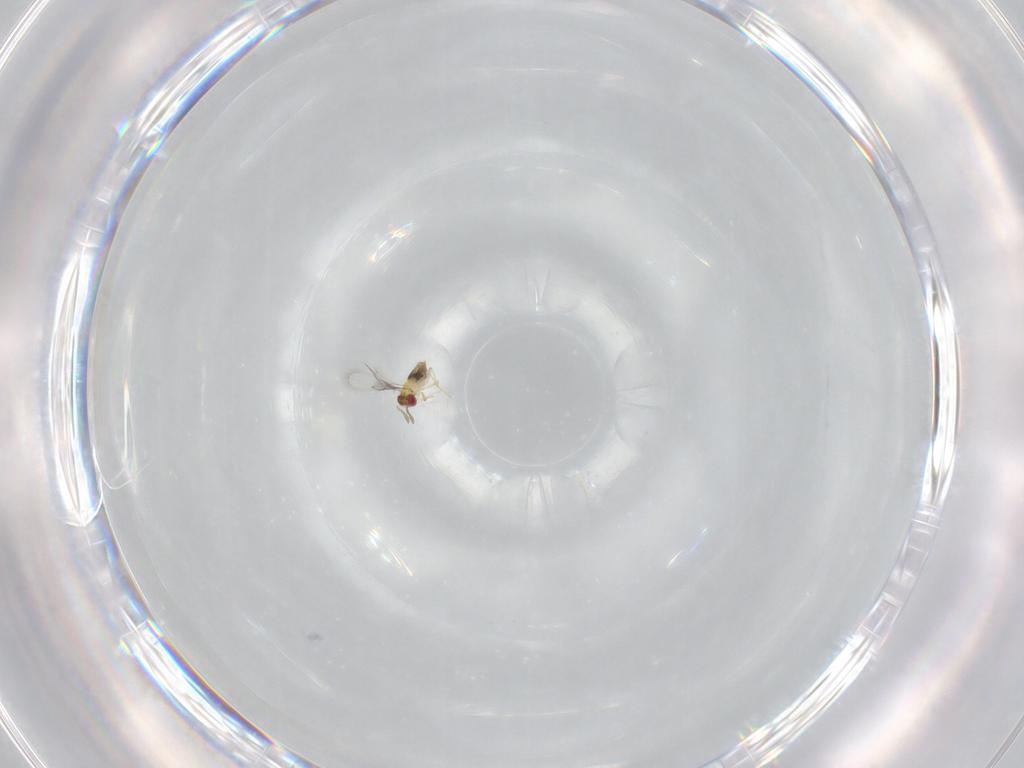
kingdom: Animalia
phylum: Arthropoda
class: Insecta
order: Hymenoptera
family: Trichogrammatidae
